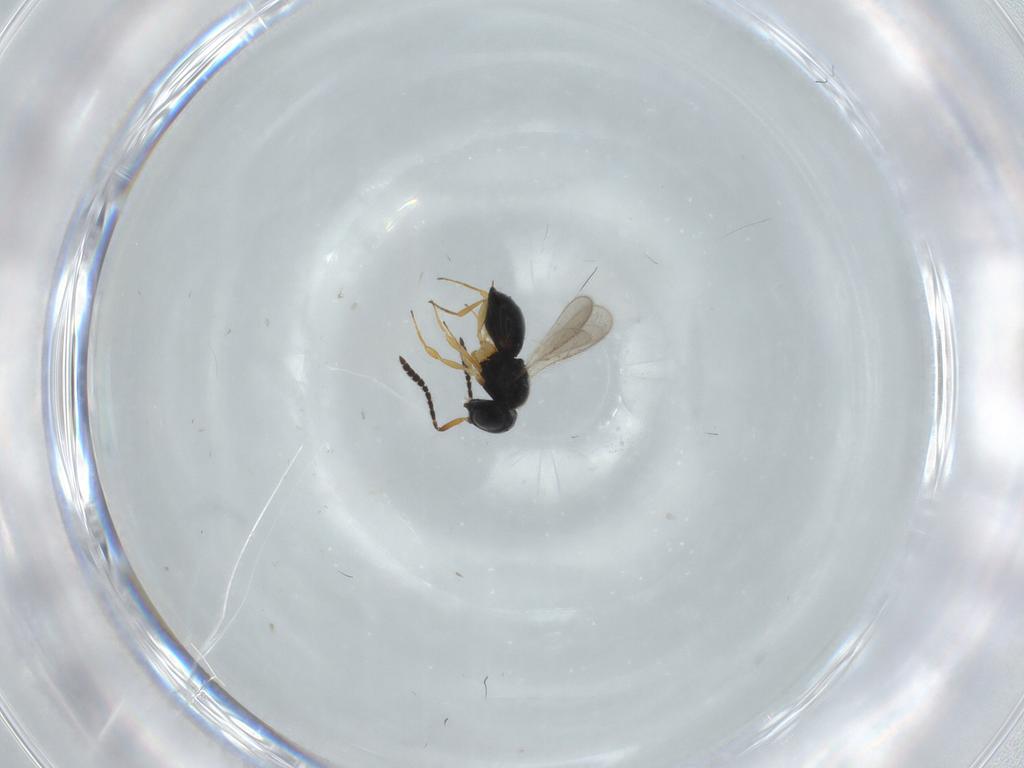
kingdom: Animalia
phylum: Arthropoda
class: Insecta
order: Hymenoptera
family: Scelionidae
